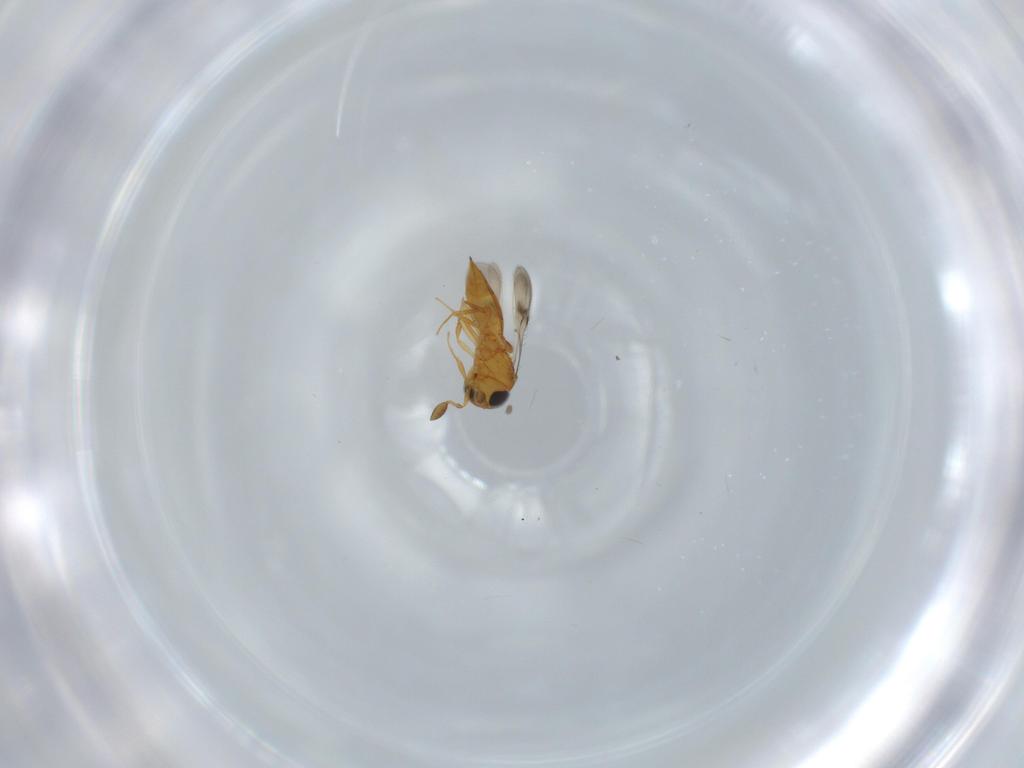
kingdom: Animalia
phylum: Arthropoda
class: Insecta
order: Hymenoptera
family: Scelionidae
